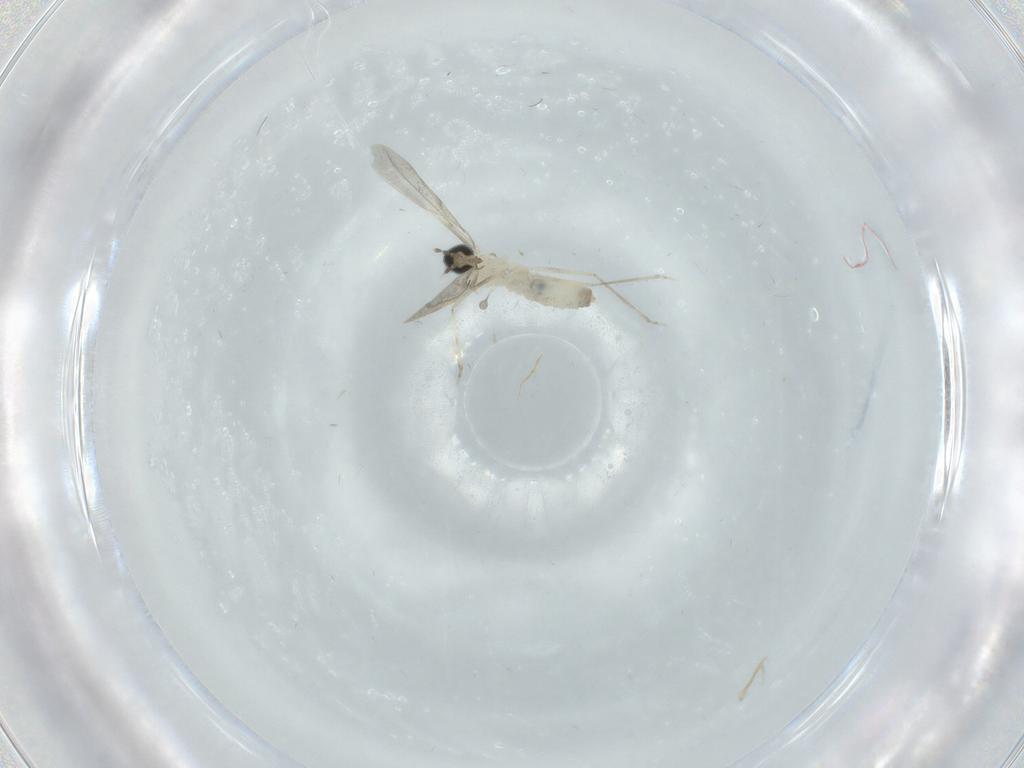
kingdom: Animalia
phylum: Arthropoda
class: Insecta
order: Diptera
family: Cecidomyiidae
